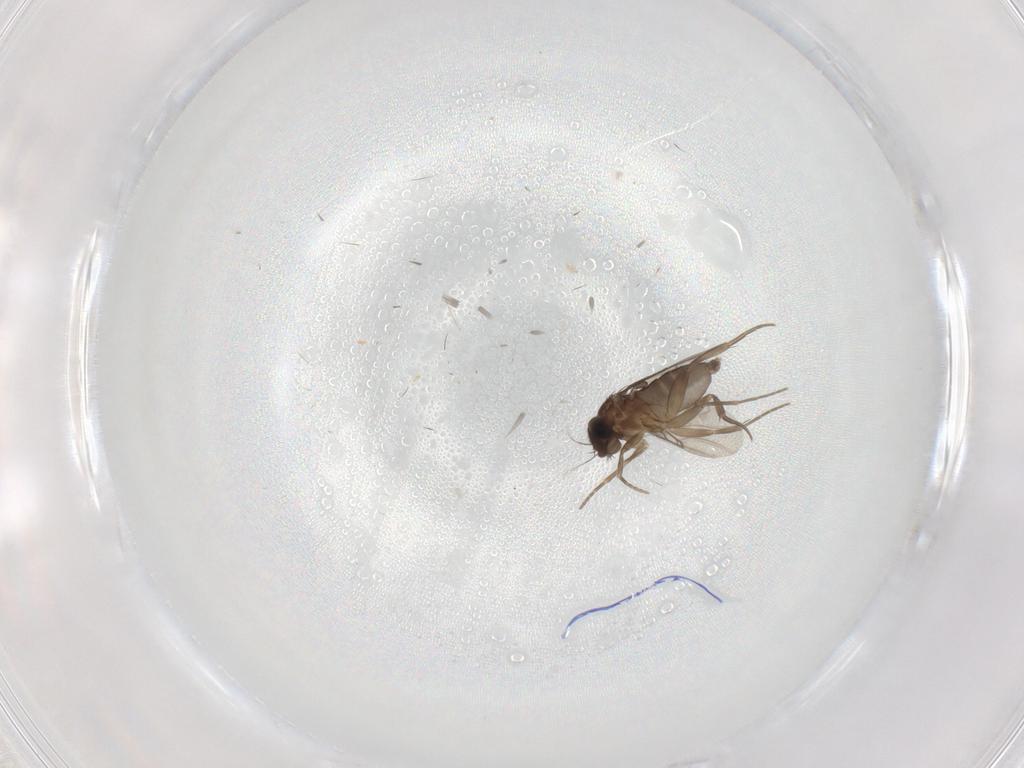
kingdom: Animalia
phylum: Arthropoda
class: Insecta
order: Diptera
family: Phoridae
